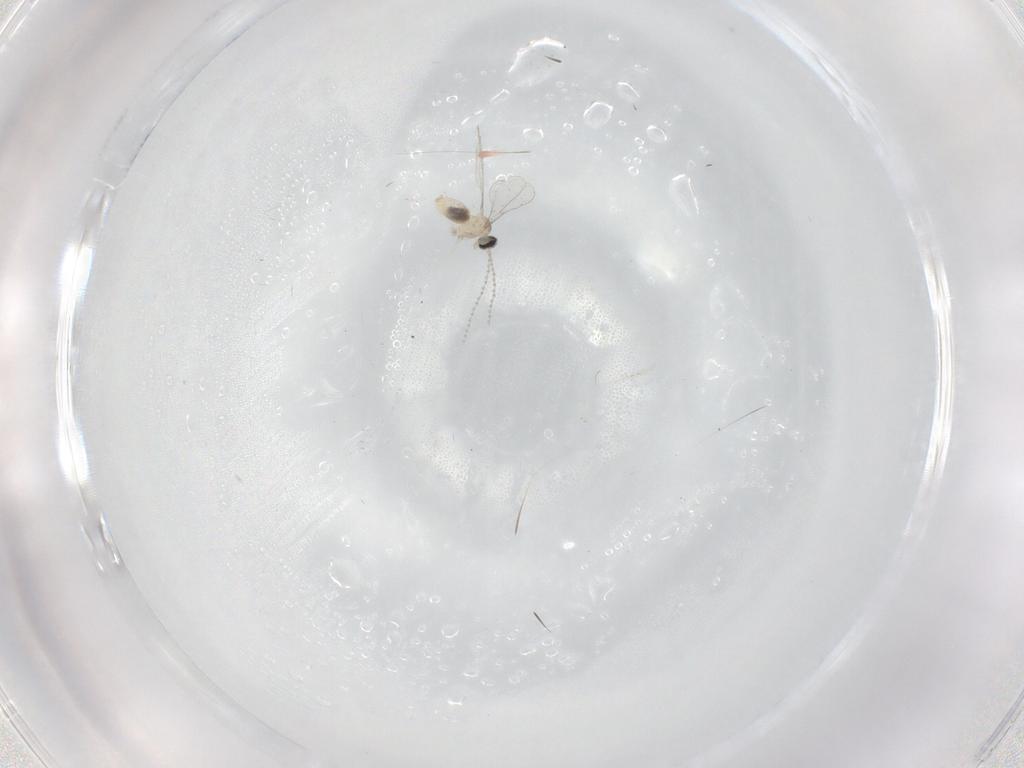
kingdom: Animalia
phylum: Arthropoda
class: Insecta
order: Diptera
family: Cecidomyiidae
